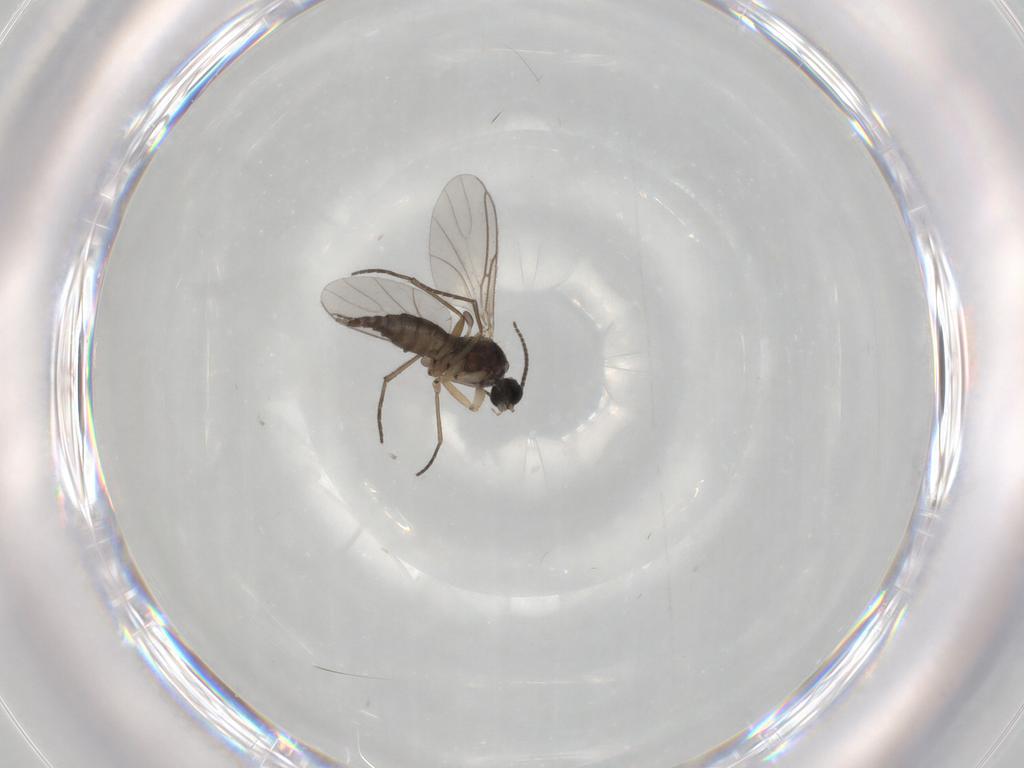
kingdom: Animalia
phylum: Arthropoda
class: Insecta
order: Diptera
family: Sciaridae
